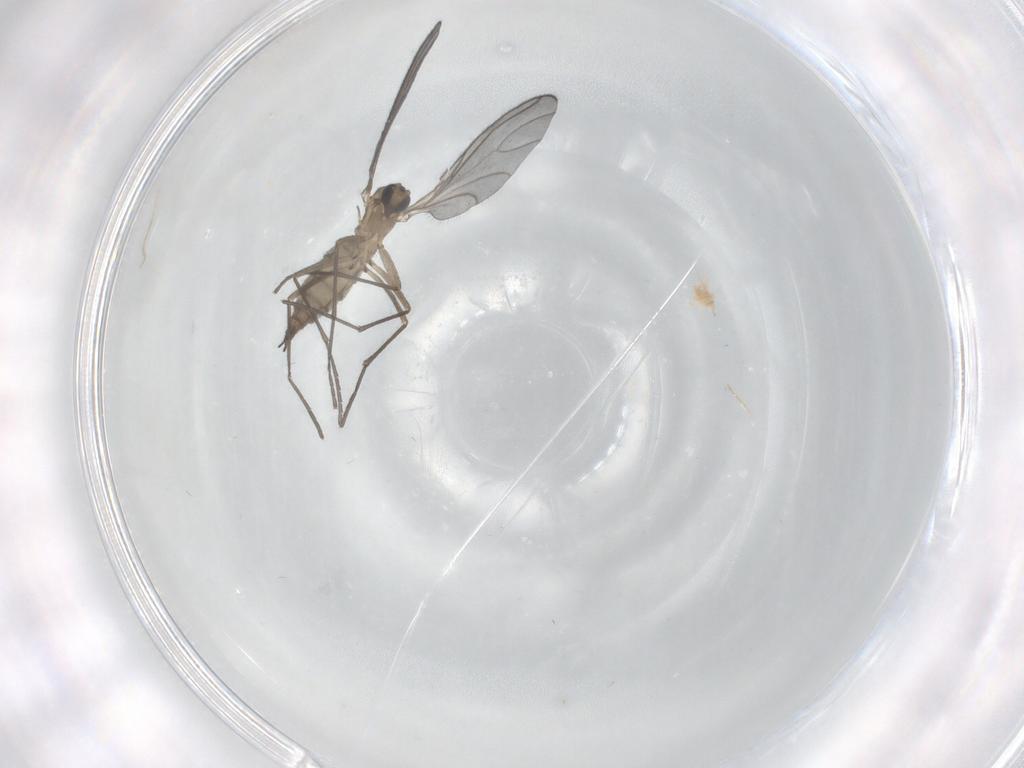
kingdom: Animalia
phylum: Arthropoda
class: Insecta
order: Diptera
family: Sciaridae
